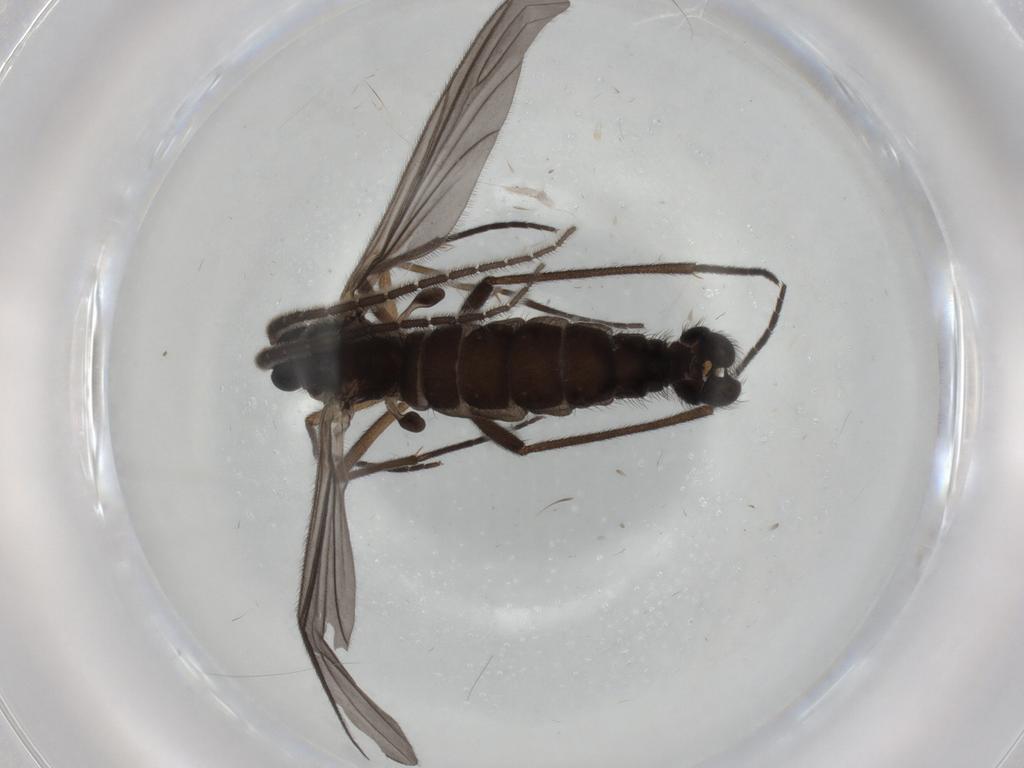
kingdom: Animalia
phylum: Arthropoda
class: Insecta
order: Diptera
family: Sciaridae
